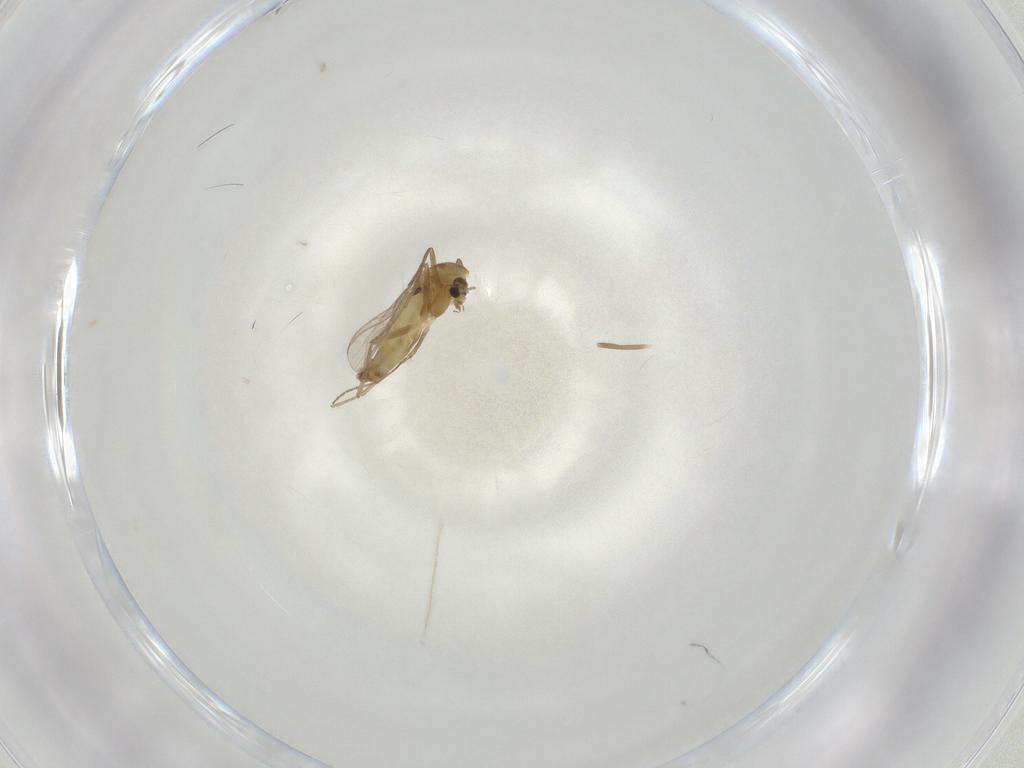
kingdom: Animalia
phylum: Arthropoda
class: Insecta
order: Diptera
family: Chironomidae
